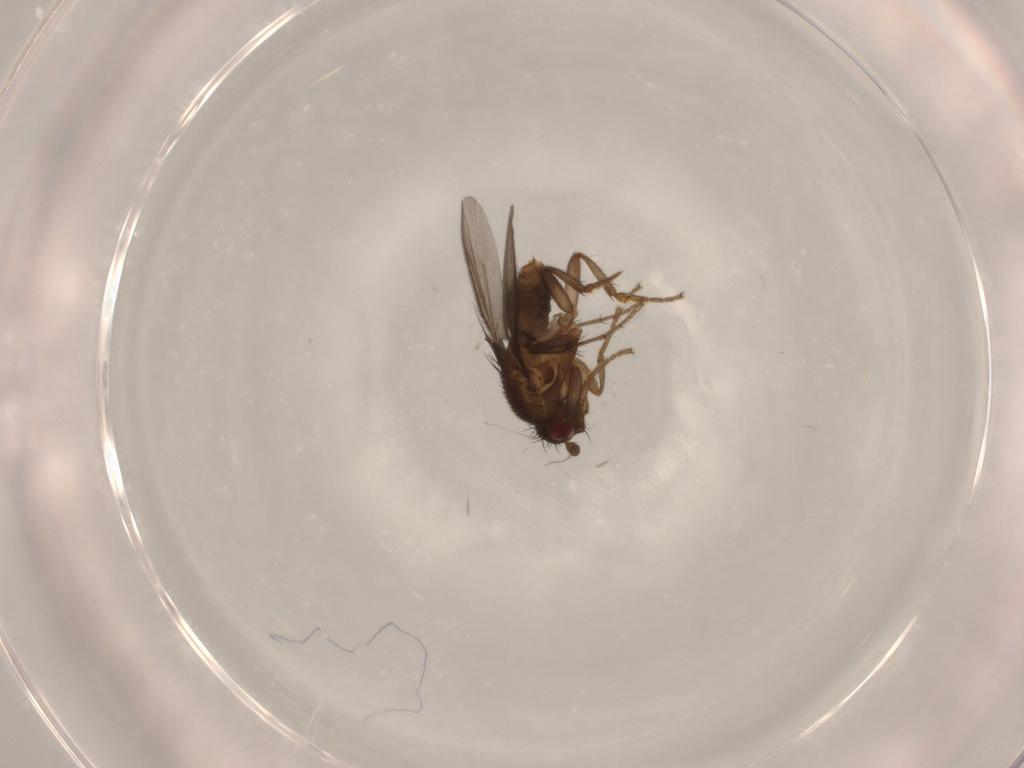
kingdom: Animalia
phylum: Arthropoda
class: Insecta
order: Diptera
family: Sphaeroceridae
